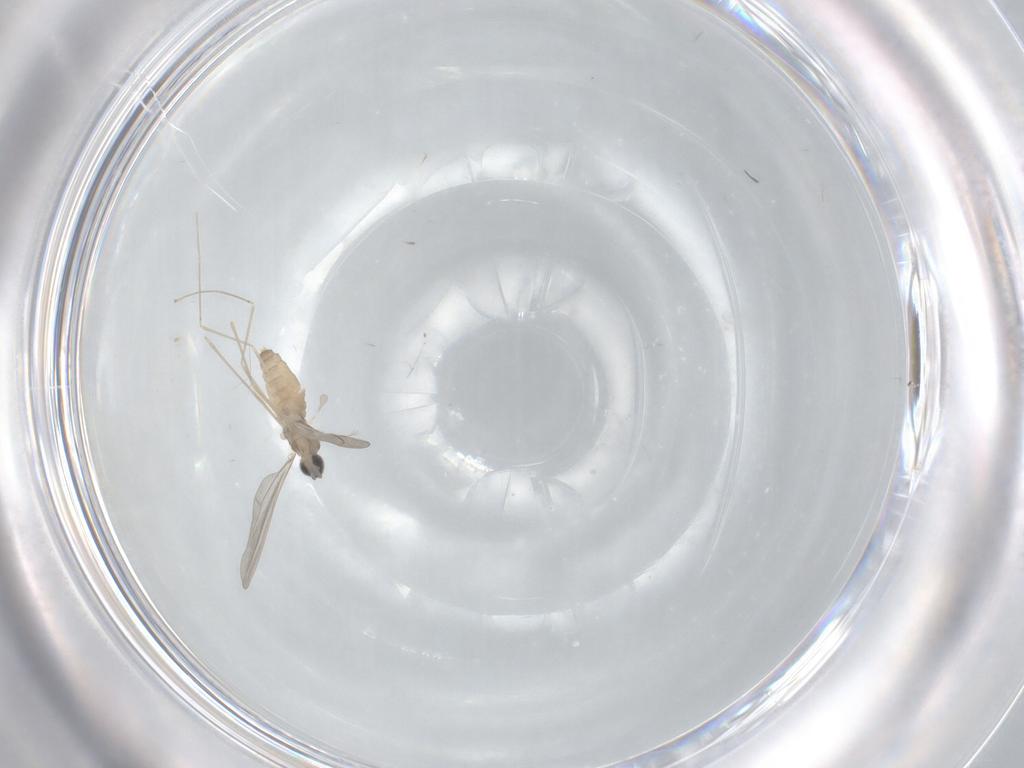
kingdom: Animalia
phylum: Arthropoda
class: Insecta
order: Diptera
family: Cecidomyiidae
